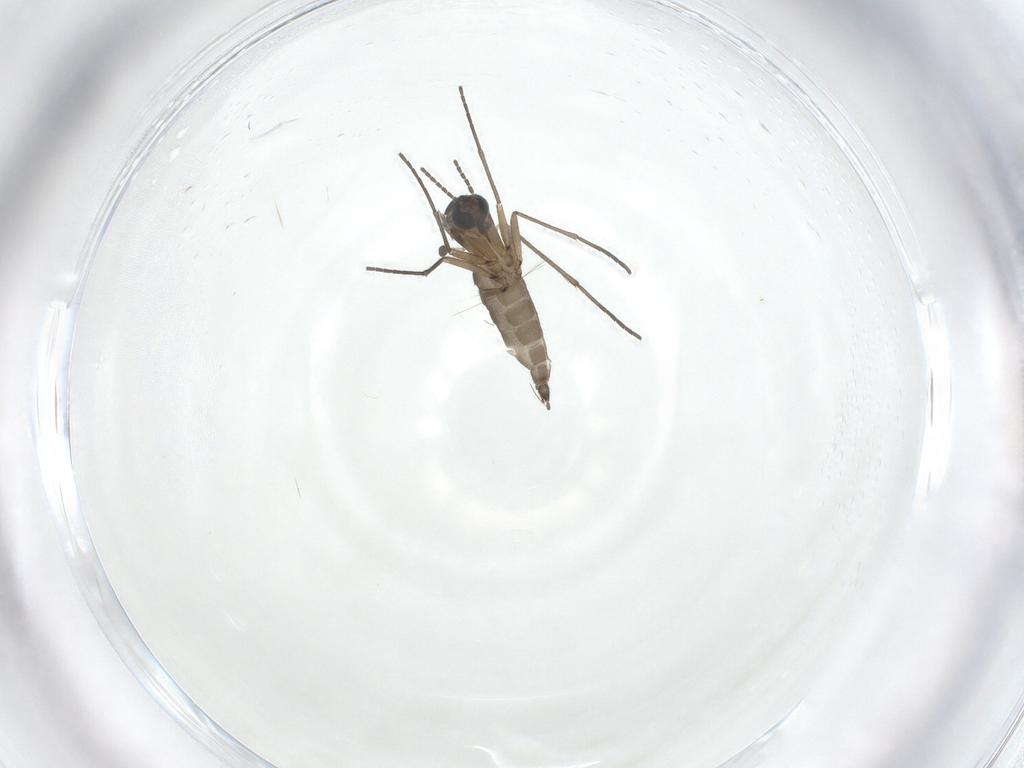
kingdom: Animalia
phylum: Arthropoda
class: Insecta
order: Diptera
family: Sciaridae
